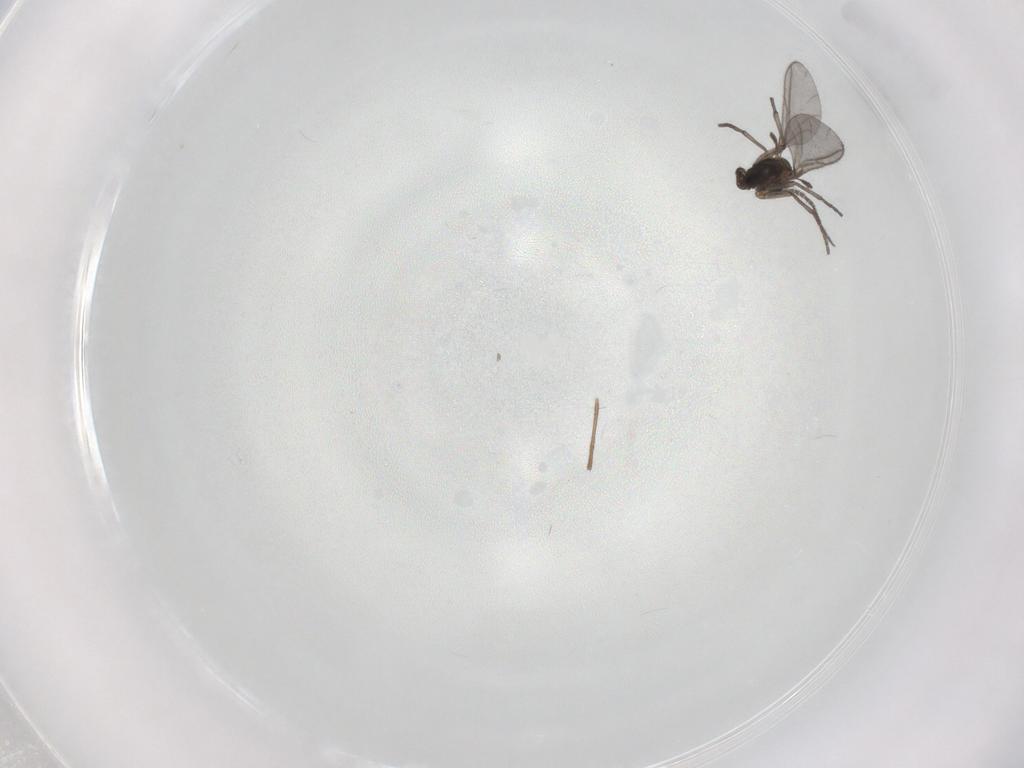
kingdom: Animalia
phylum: Arthropoda
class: Insecta
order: Diptera
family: Sciaridae
